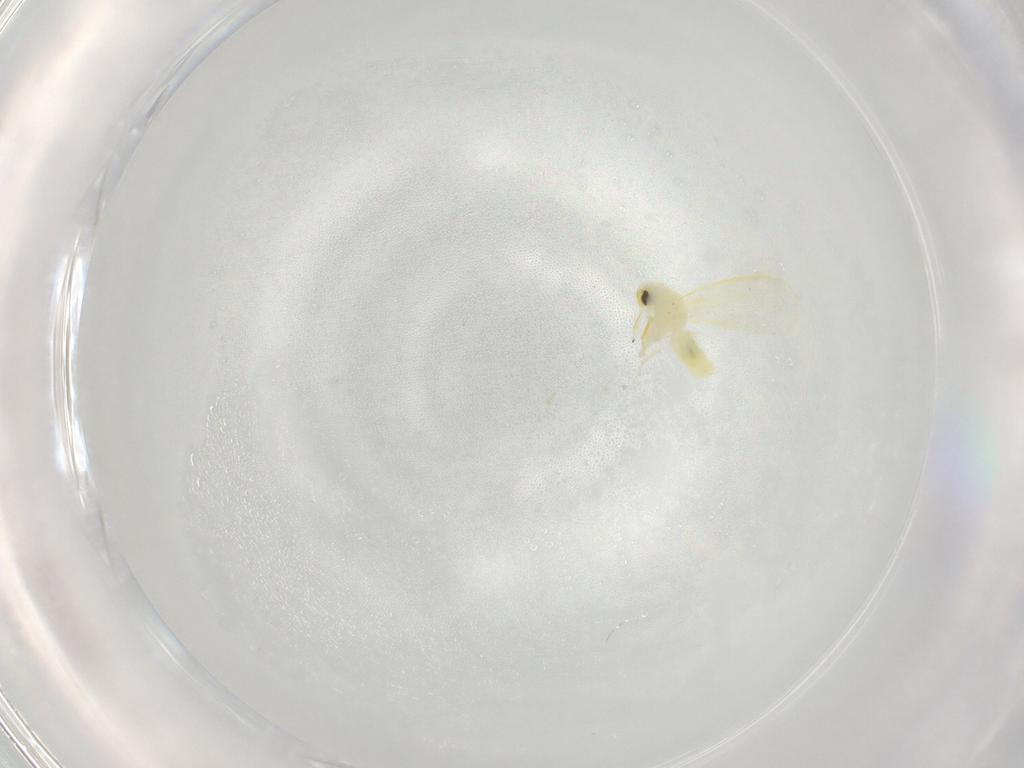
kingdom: Animalia
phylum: Arthropoda
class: Insecta
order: Hemiptera
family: Aleyrodidae
